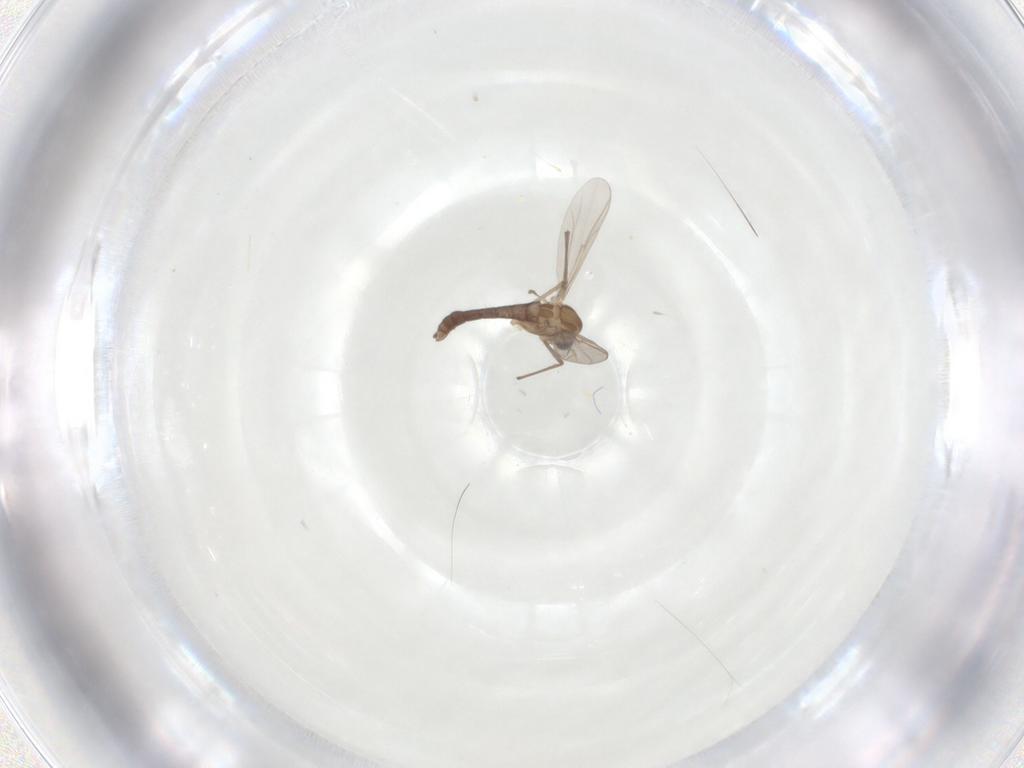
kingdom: Animalia
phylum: Arthropoda
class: Insecta
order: Diptera
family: Chironomidae
